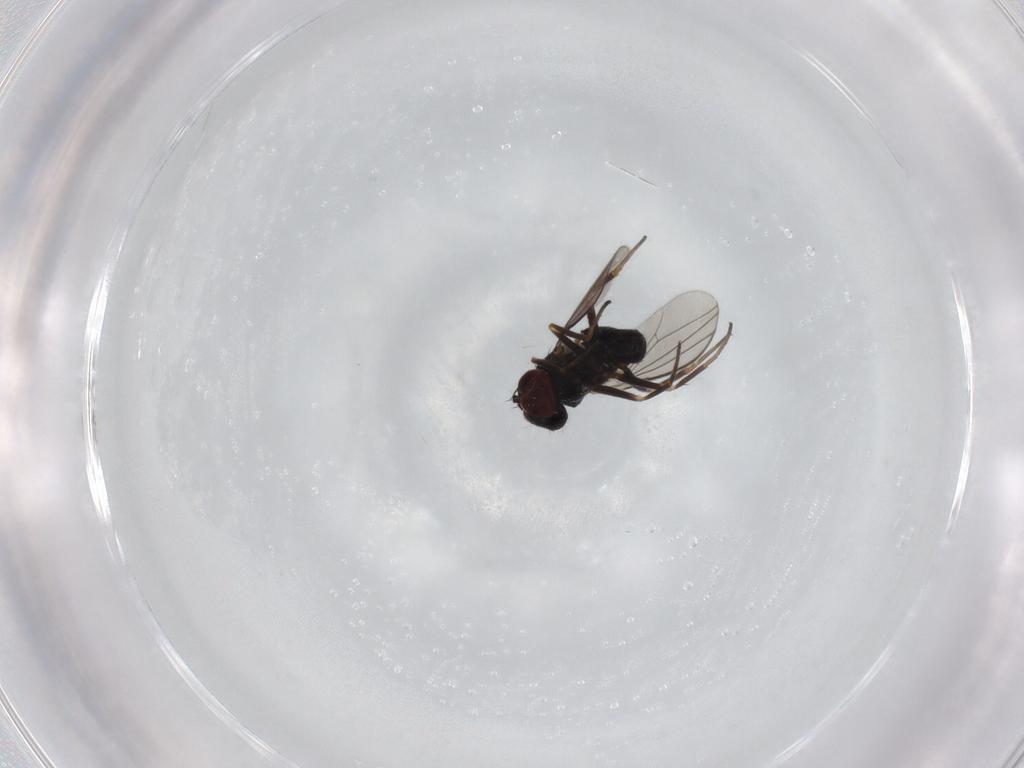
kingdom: Animalia
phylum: Arthropoda
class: Insecta
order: Diptera
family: Dolichopodidae
